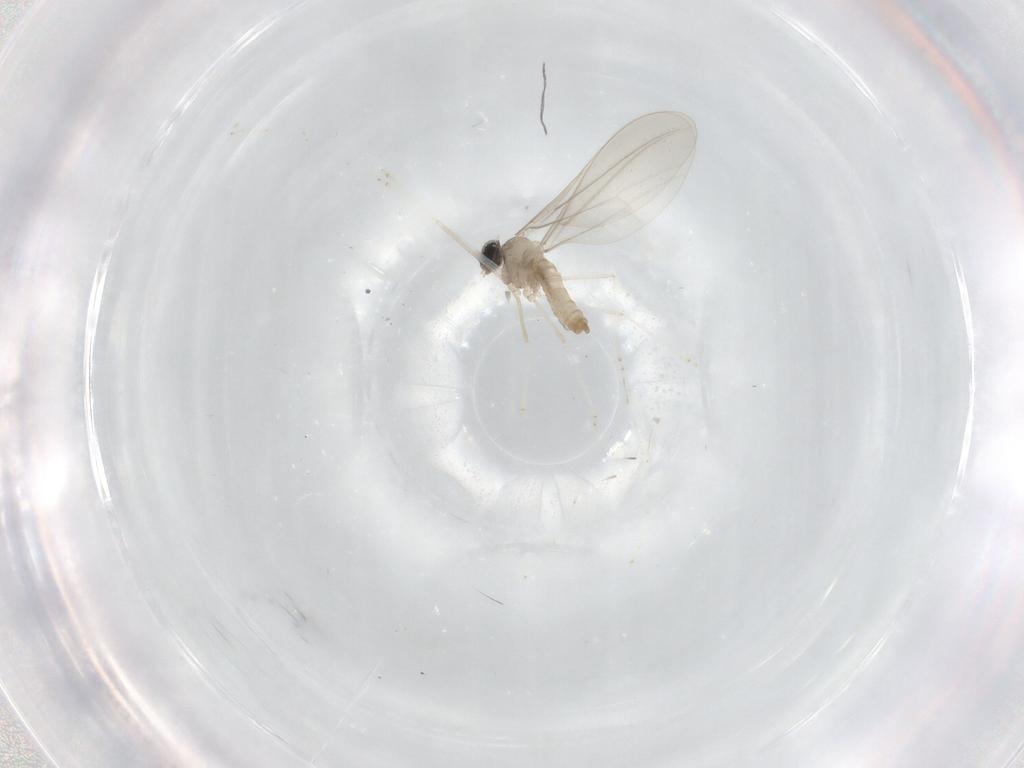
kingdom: Animalia
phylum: Arthropoda
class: Insecta
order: Diptera
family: Cecidomyiidae
